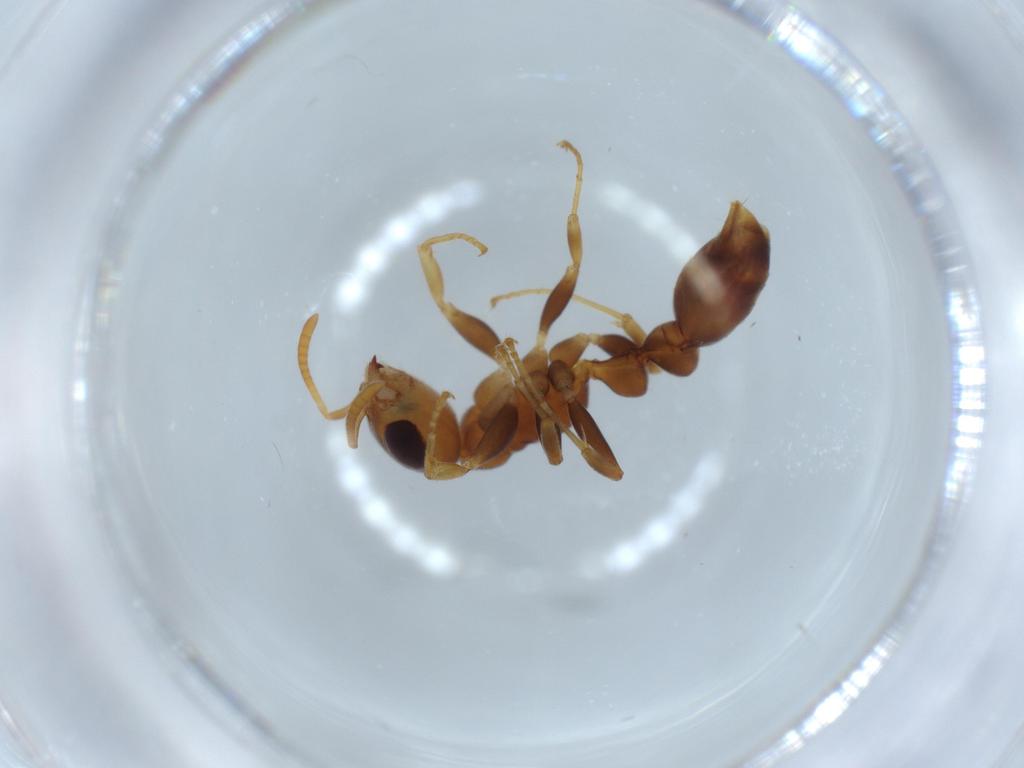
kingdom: Animalia
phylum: Arthropoda
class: Insecta
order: Hymenoptera
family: Formicidae
